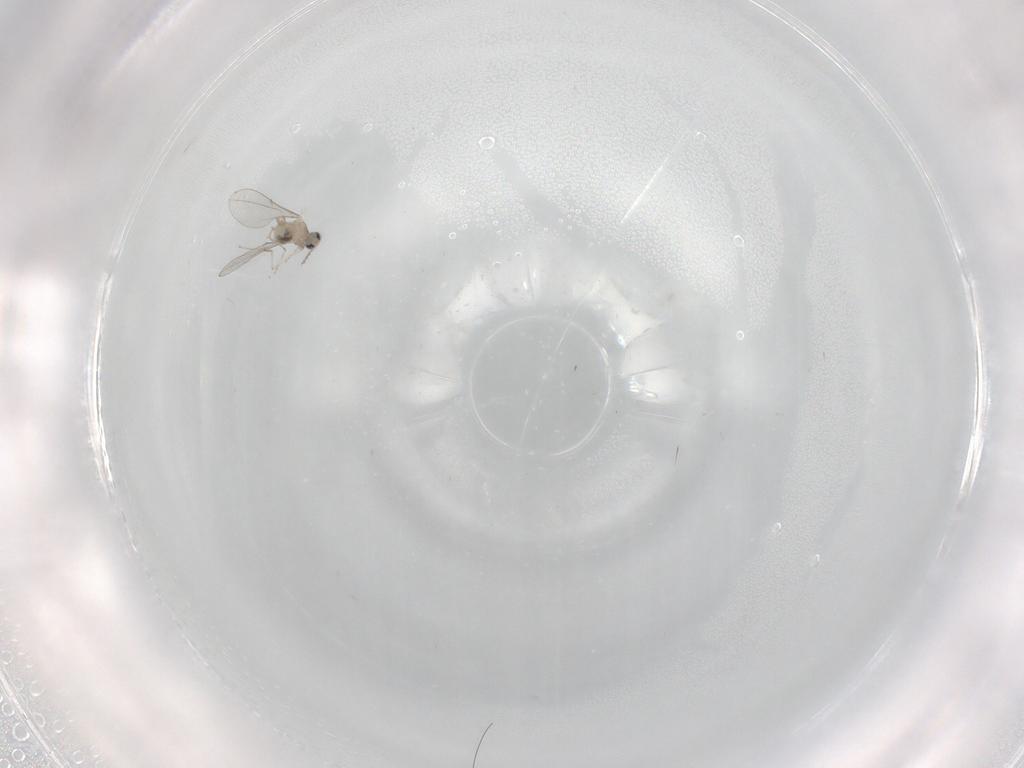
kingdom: Animalia
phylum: Arthropoda
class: Insecta
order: Diptera
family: Cecidomyiidae
